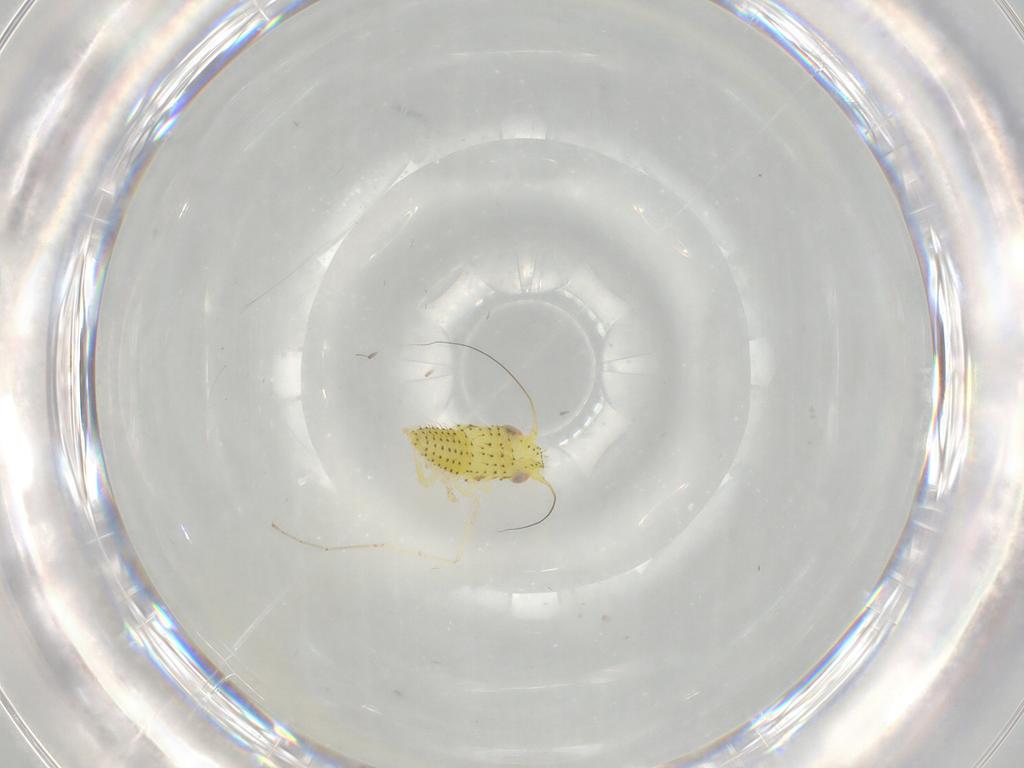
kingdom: Animalia
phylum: Arthropoda
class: Insecta
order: Hemiptera
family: Cicadellidae
